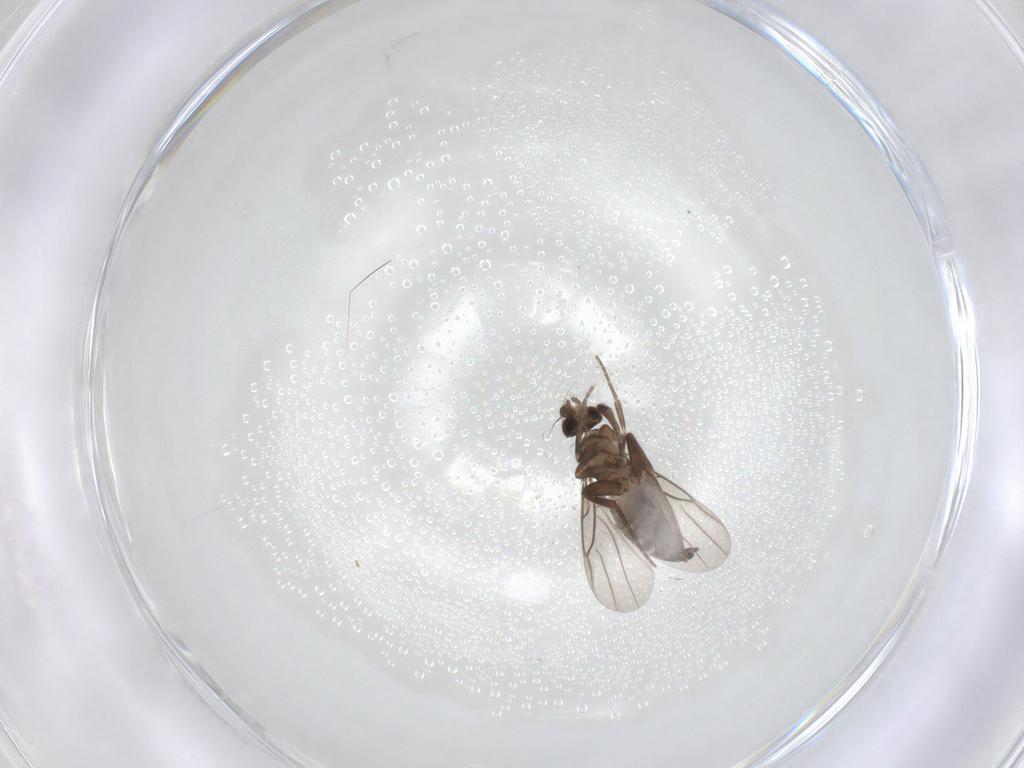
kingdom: Animalia
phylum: Arthropoda
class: Insecta
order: Diptera
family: Phoridae
